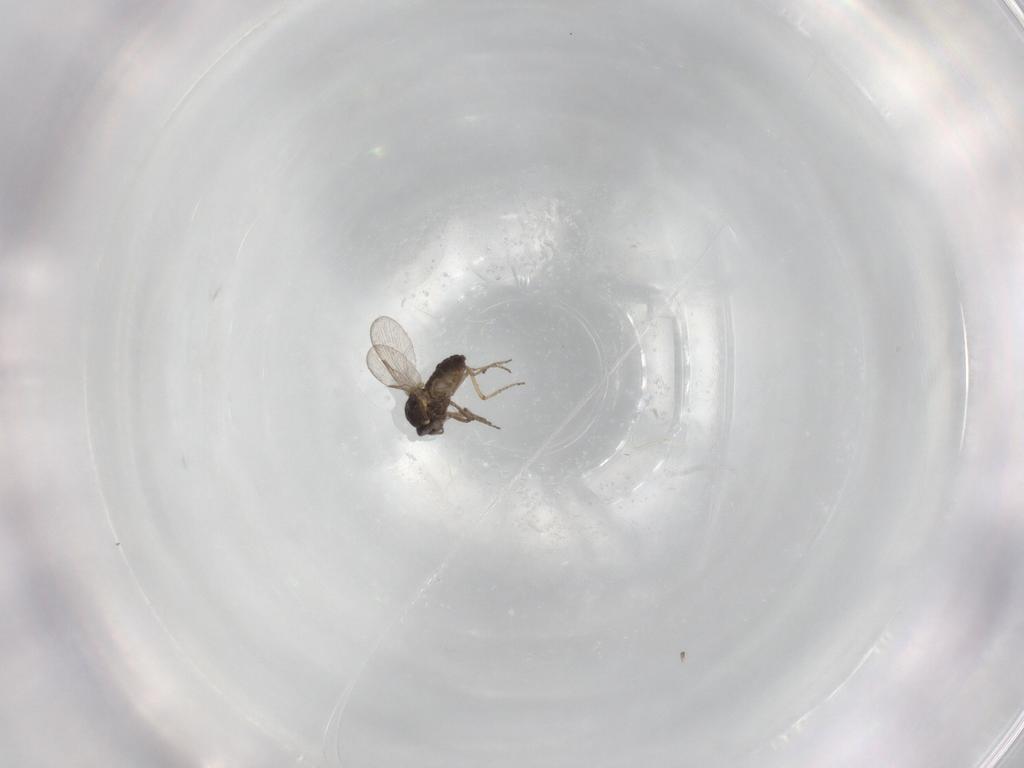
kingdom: Animalia
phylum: Arthropoda
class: Insecta
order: Diptera
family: Ceratopogonidae
